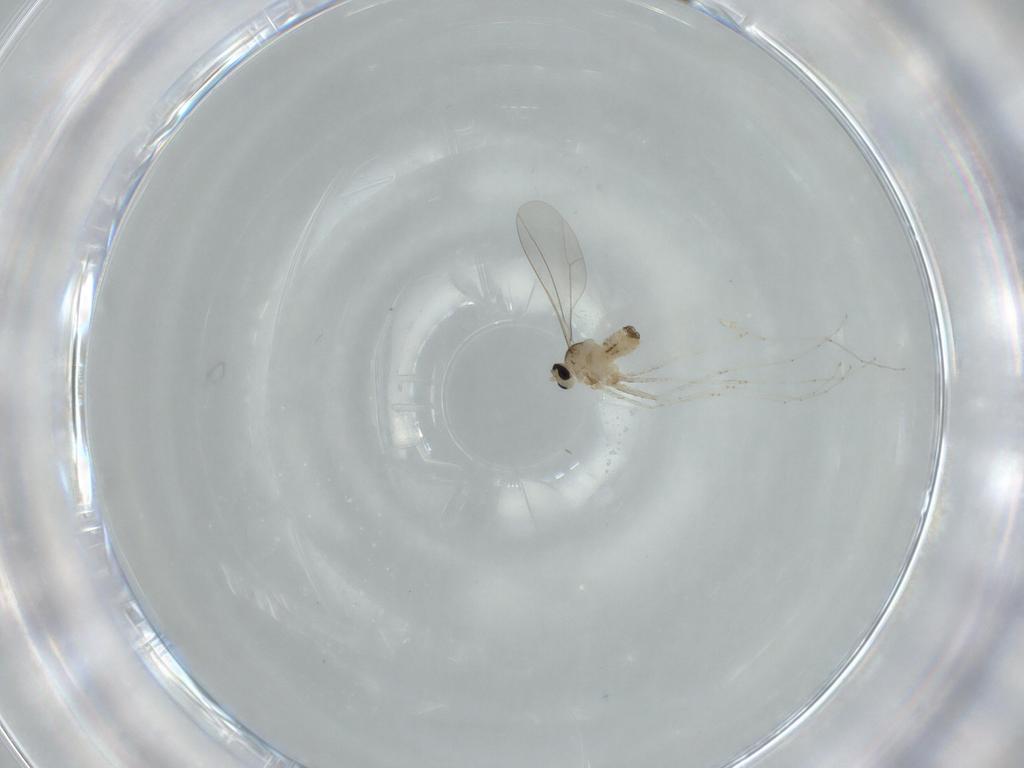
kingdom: Animalia
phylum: Arthropoda
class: Insecta
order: Diptera
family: Cecidomyiidae
